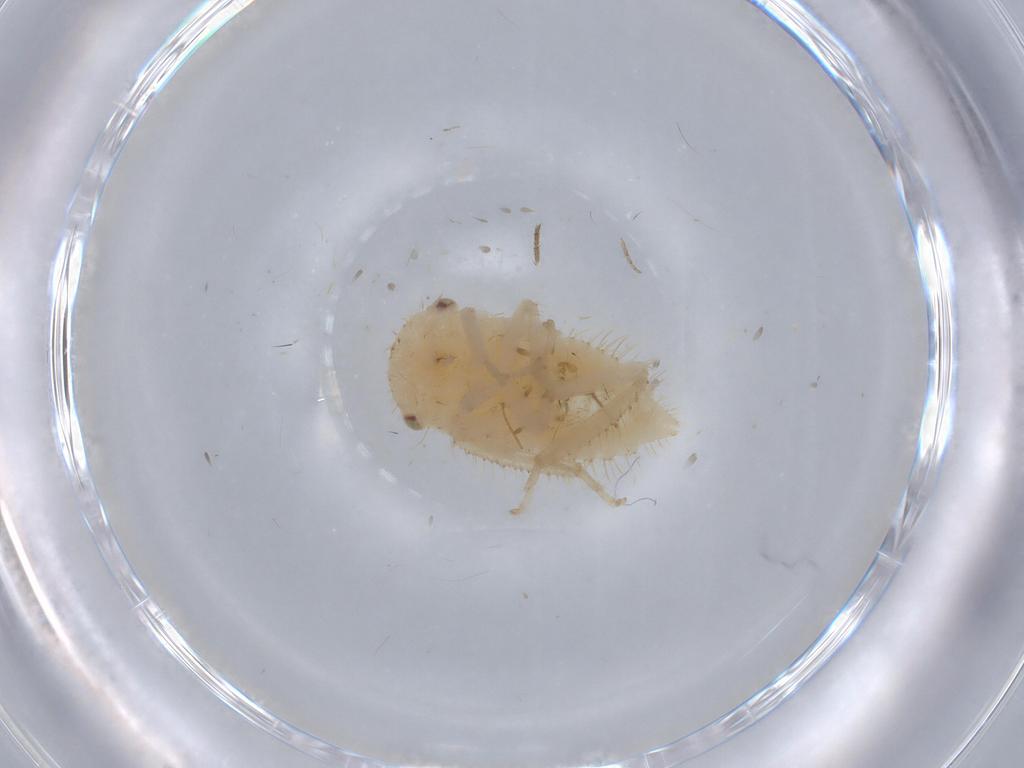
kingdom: Animalia
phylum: Arthropoda
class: Insecta
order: Hemiptera
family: Cicadellidae
